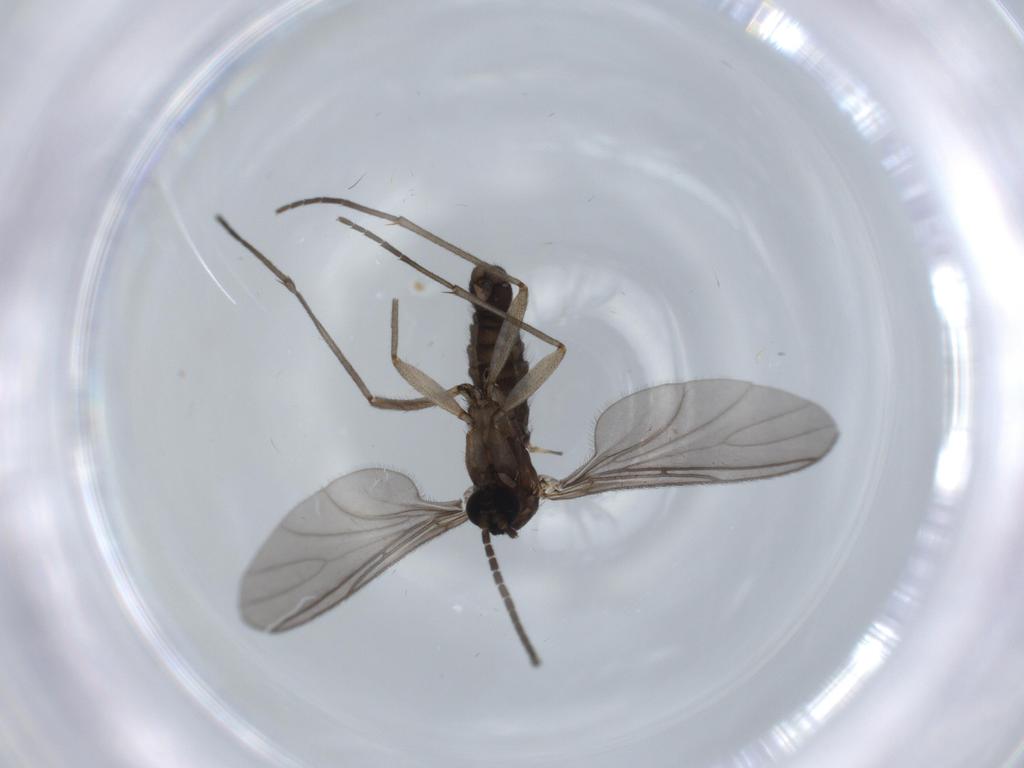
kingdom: Animalia
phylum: Arthropoda
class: Insecta
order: Diptera
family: Sciaridae
